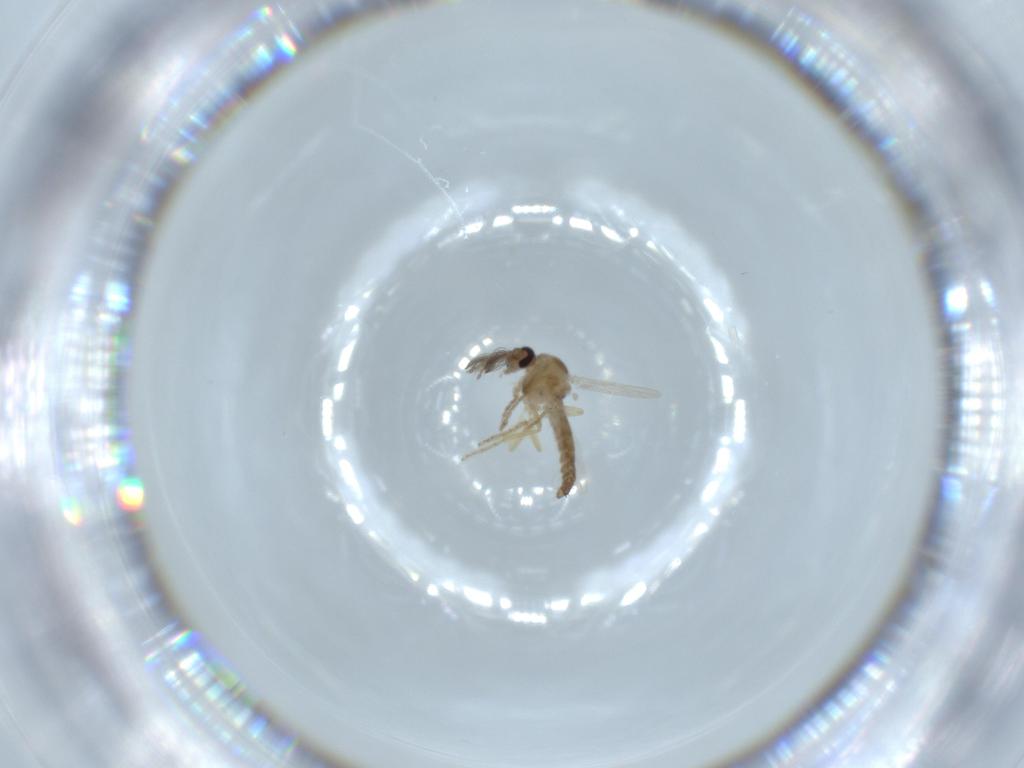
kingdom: Animalia
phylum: Arthropoda
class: Insecta
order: Diptera
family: Ceratopogonidae
